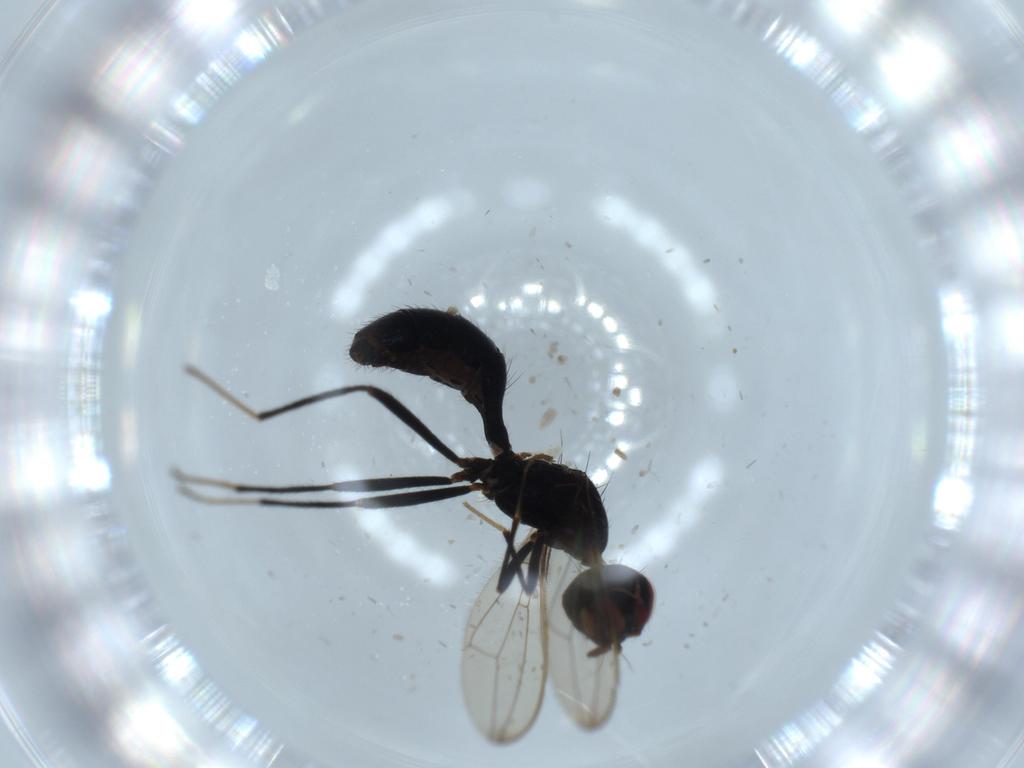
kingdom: Animalia
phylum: Arthropoda
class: Insecta
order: Diptera
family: Richardiidae
